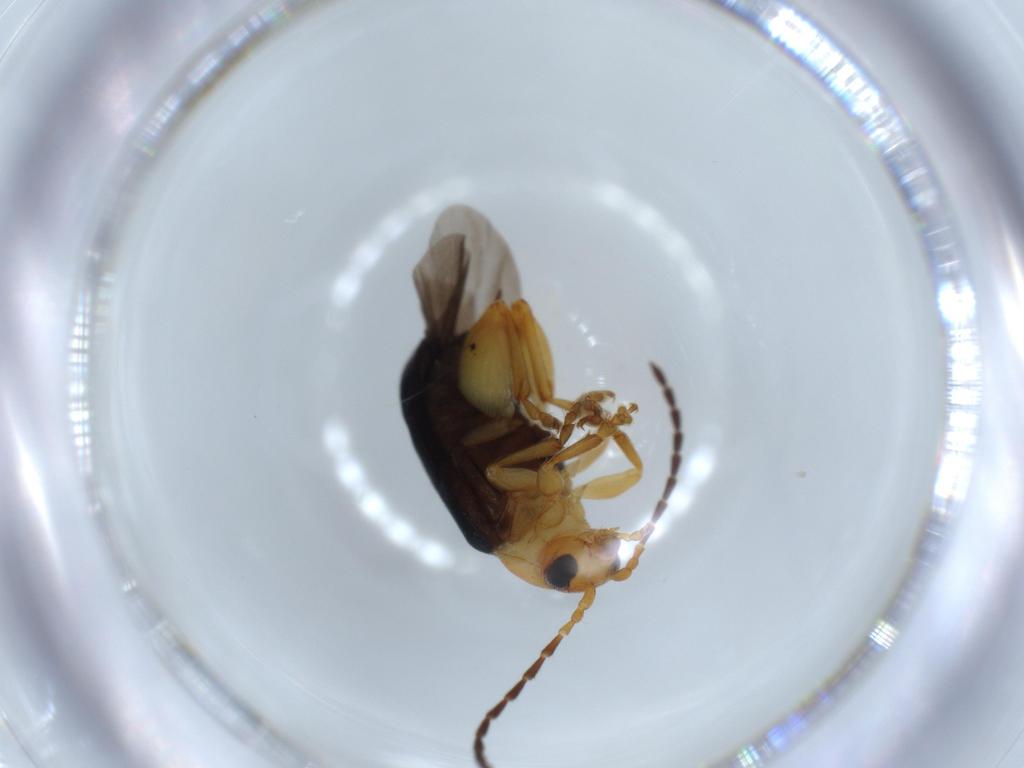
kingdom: Animalia
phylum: Arthropoda
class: Insecta
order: Coleoptera
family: Chrysomelidae
